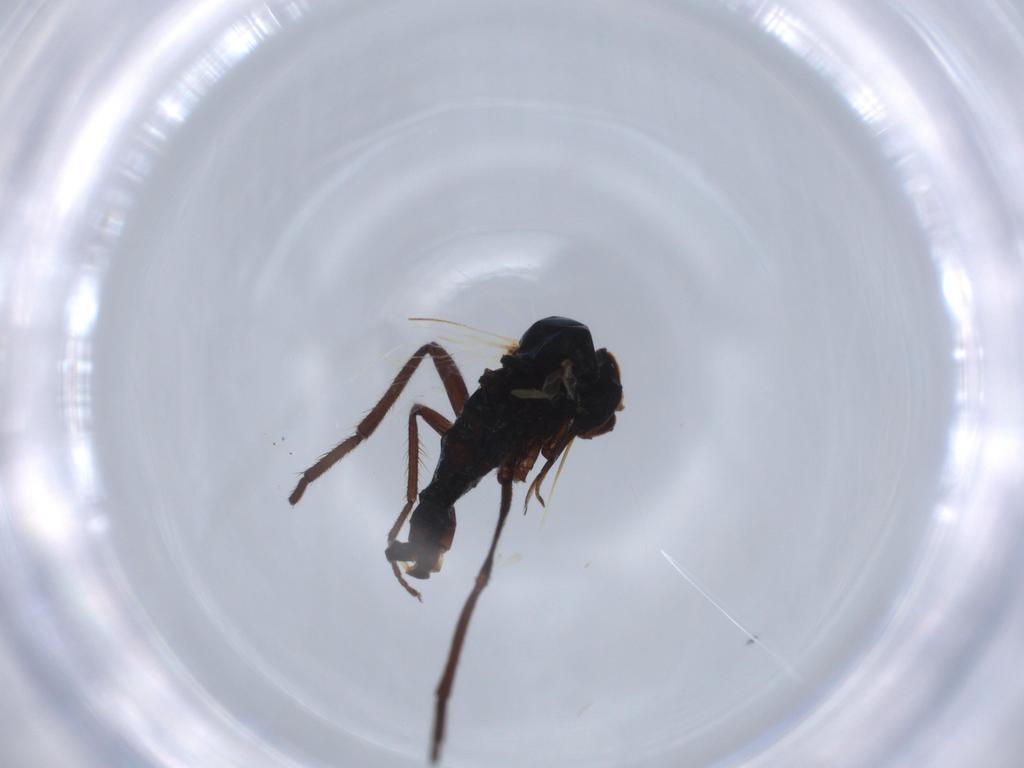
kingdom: Animalia
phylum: Arthropoda
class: Insecta
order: Diptera
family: Empididae
